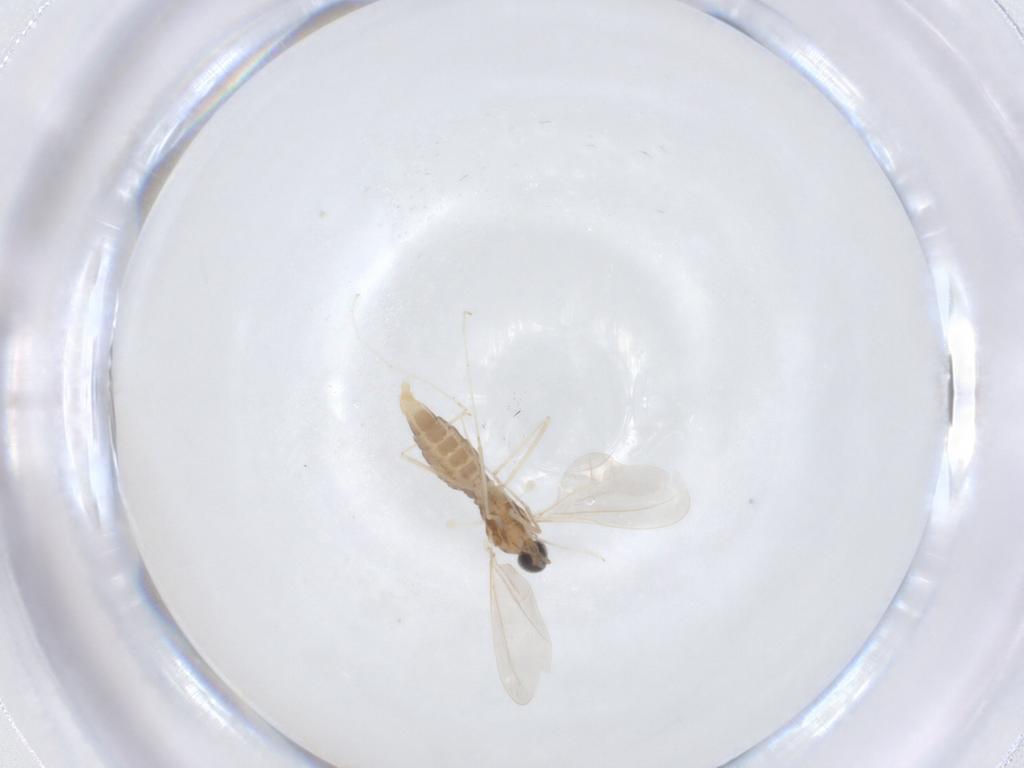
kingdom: Animalia
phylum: Arthropoda
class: Insecta
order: Diptera
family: Cecidomyiidae
